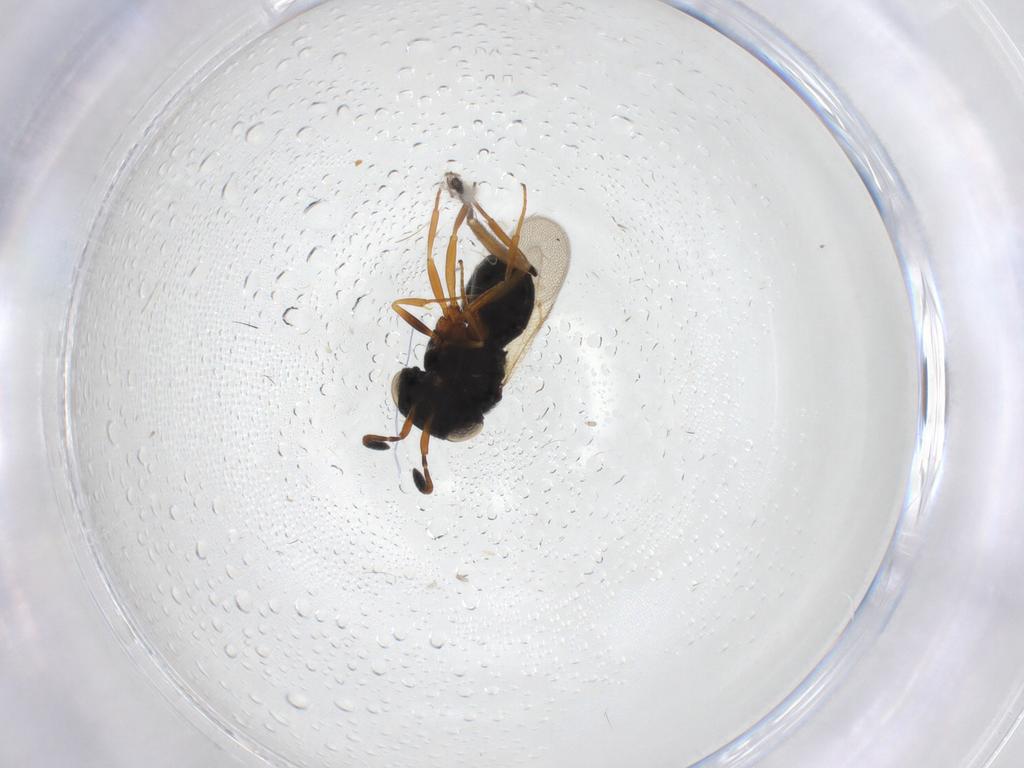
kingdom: Animalia
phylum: Arthropoda
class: Insecta
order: Hymenoptera
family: Scelionidae
